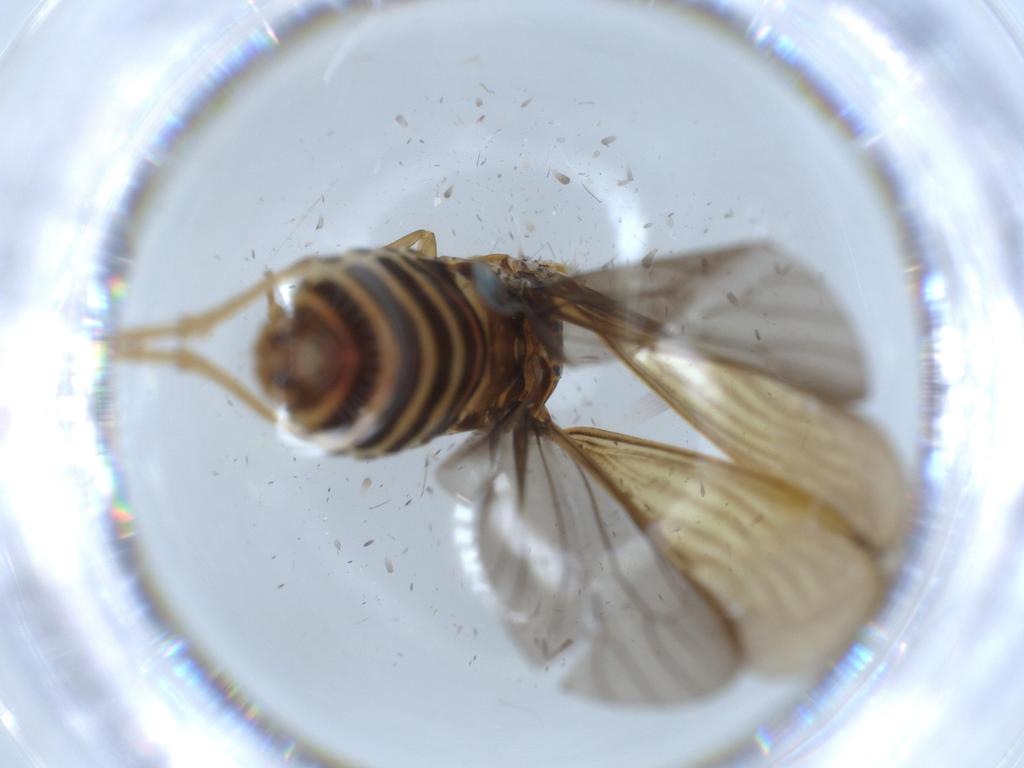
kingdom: Animalia
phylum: Arthropoda
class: Insecta
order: Hemiptera
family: Achilidae
